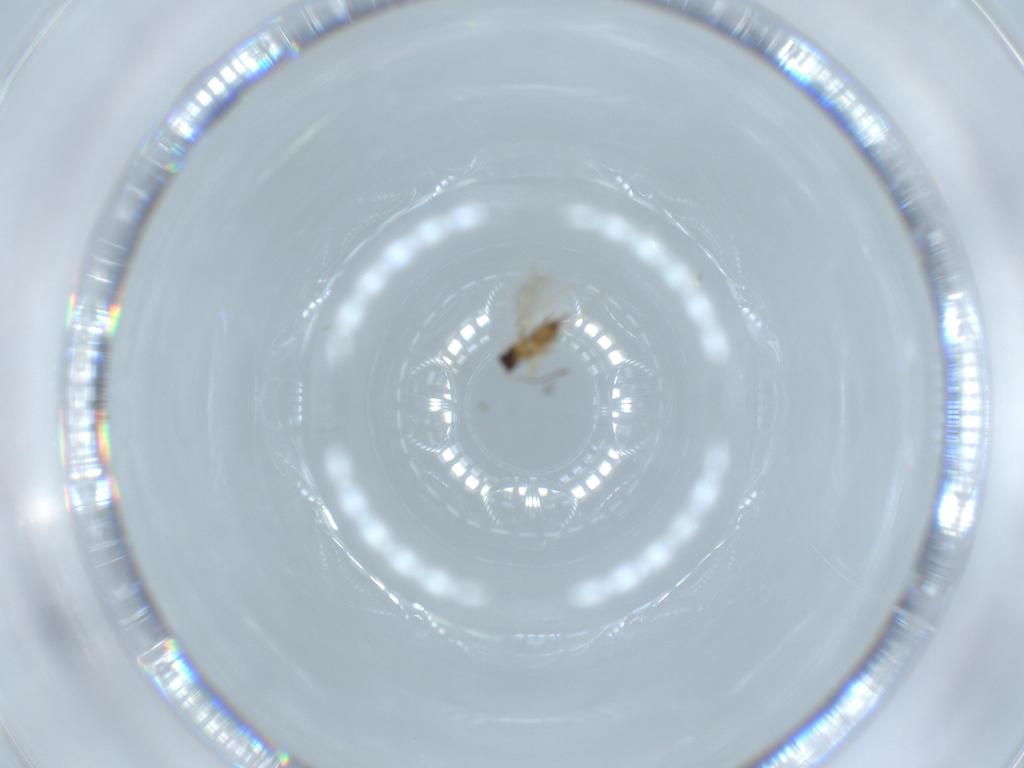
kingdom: Animalia
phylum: Arthropoda
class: Insecta
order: Hymenoptera
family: Mymaridae
